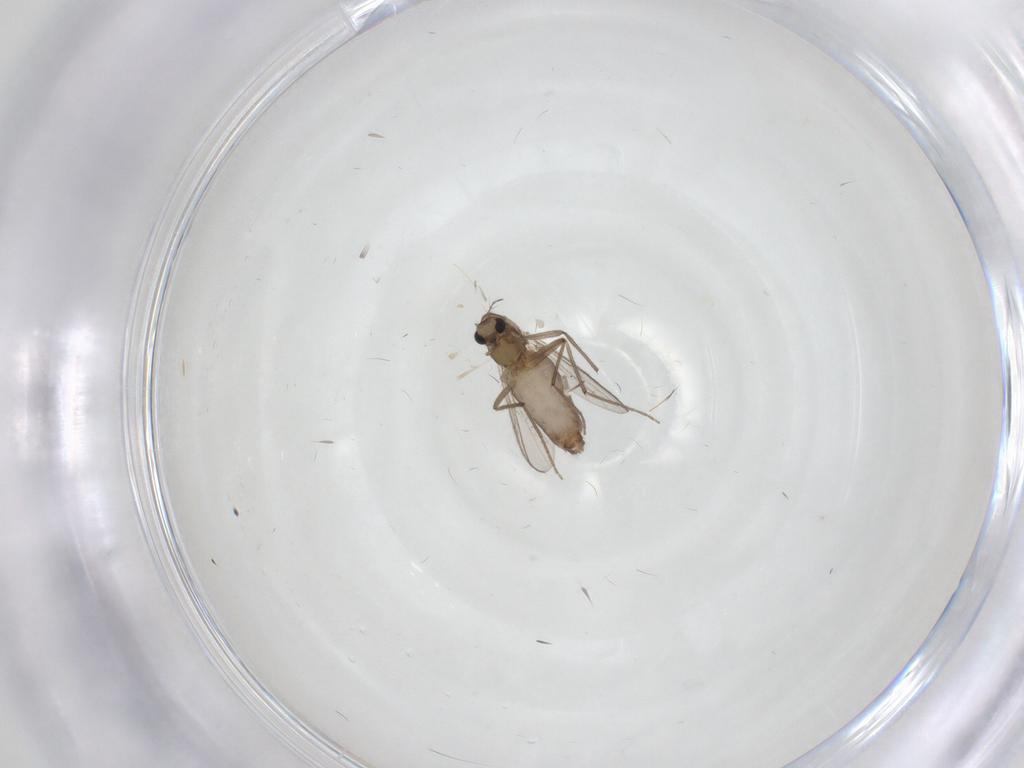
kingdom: Animalia
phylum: Arthropoda
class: Insecta
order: Diptera
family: Chironomidae
